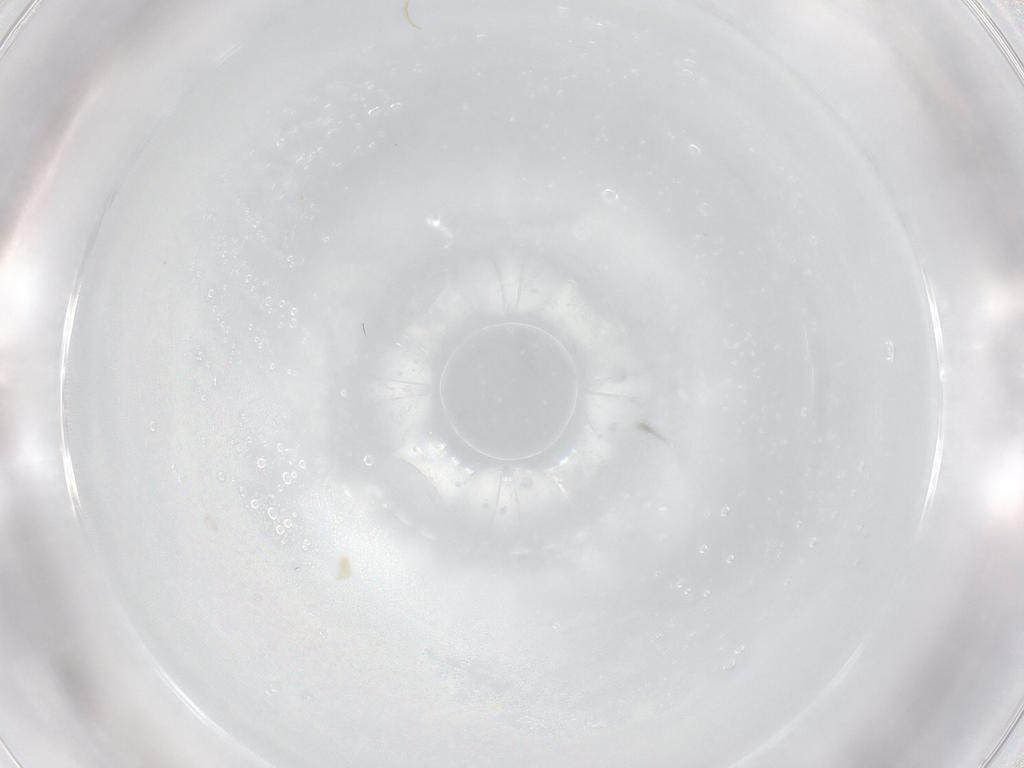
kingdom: Animalia
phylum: Arthropoda
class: Arachnida
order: Trombidiformes
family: Eupodidae
